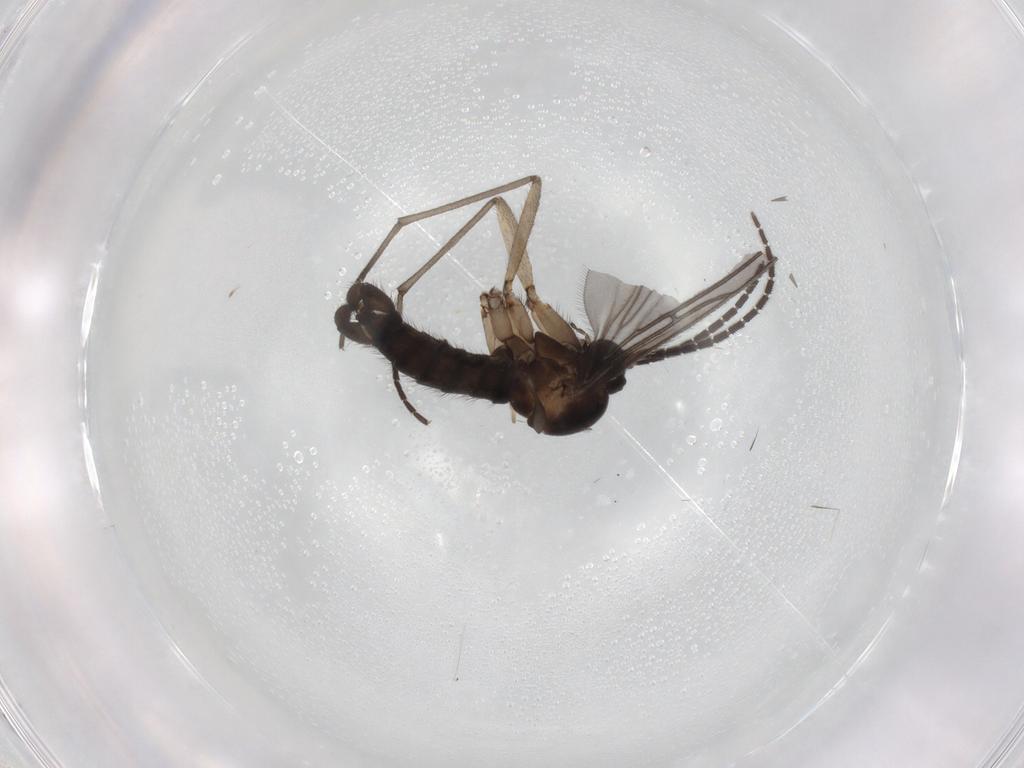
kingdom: Animalia
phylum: Arthropoda
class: Insecta
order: Diptera
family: Sciaridae
